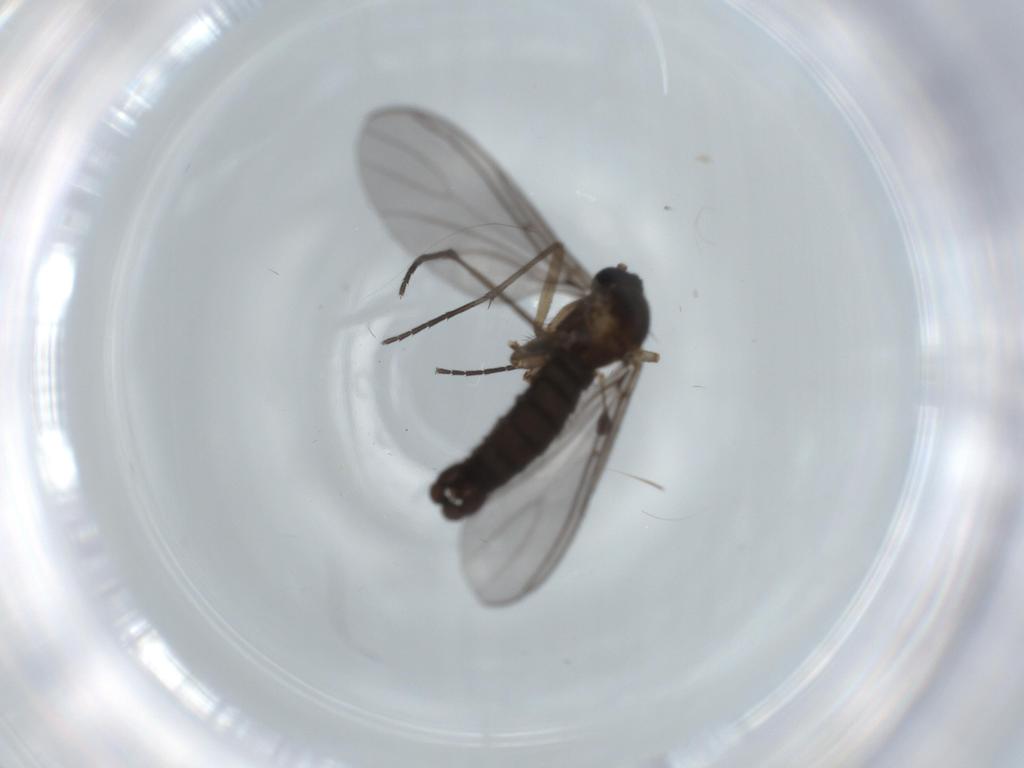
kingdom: Animalia
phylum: Arthropoda
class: Insecta
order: Diptera
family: Sciaridae
